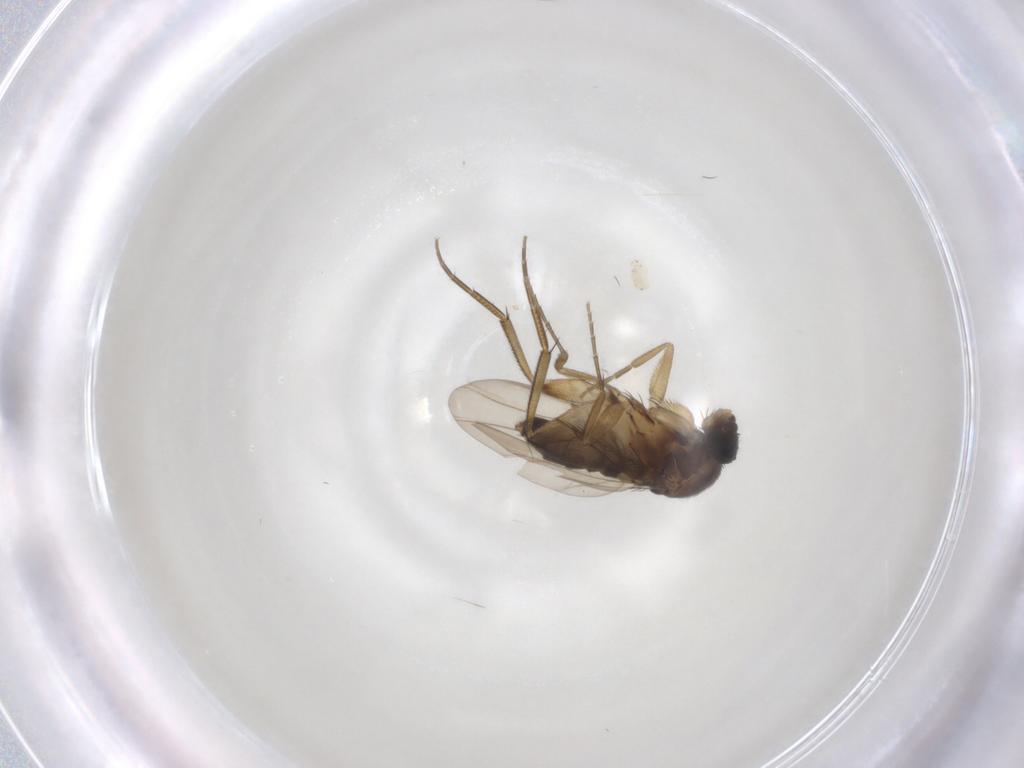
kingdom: Animalia
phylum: Arthropoda
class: Insecta
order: Diptera
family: Phoridae
